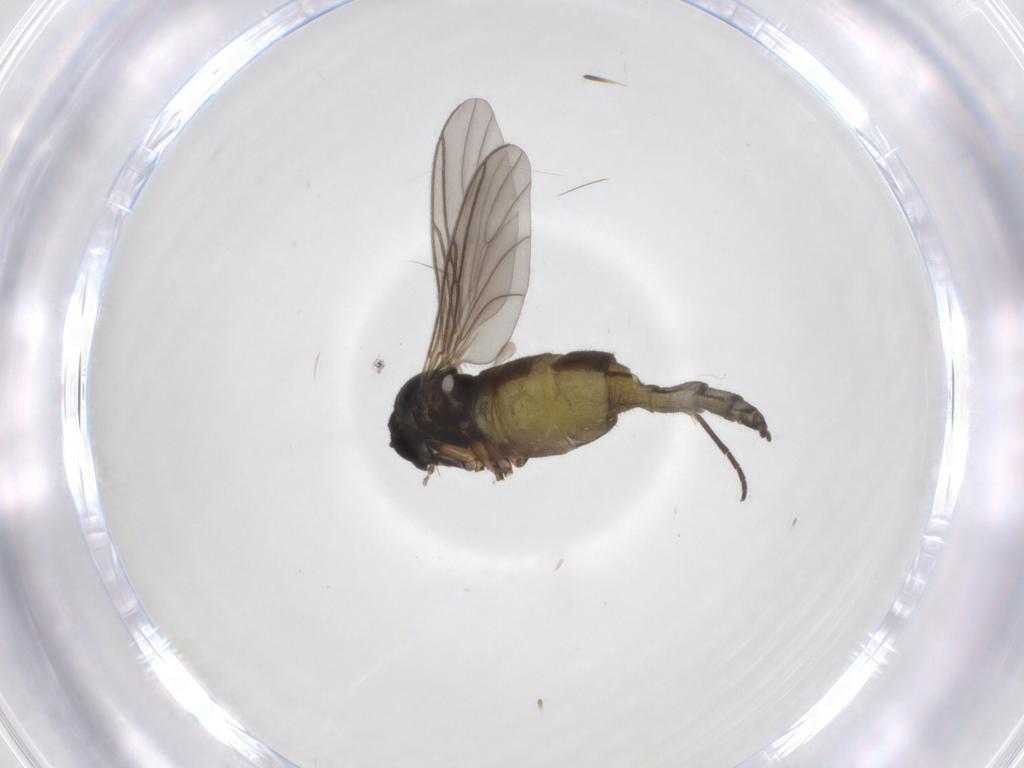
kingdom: Animalia
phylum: Arthropoda
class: Insecta
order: Diptera
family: Sciaridae
